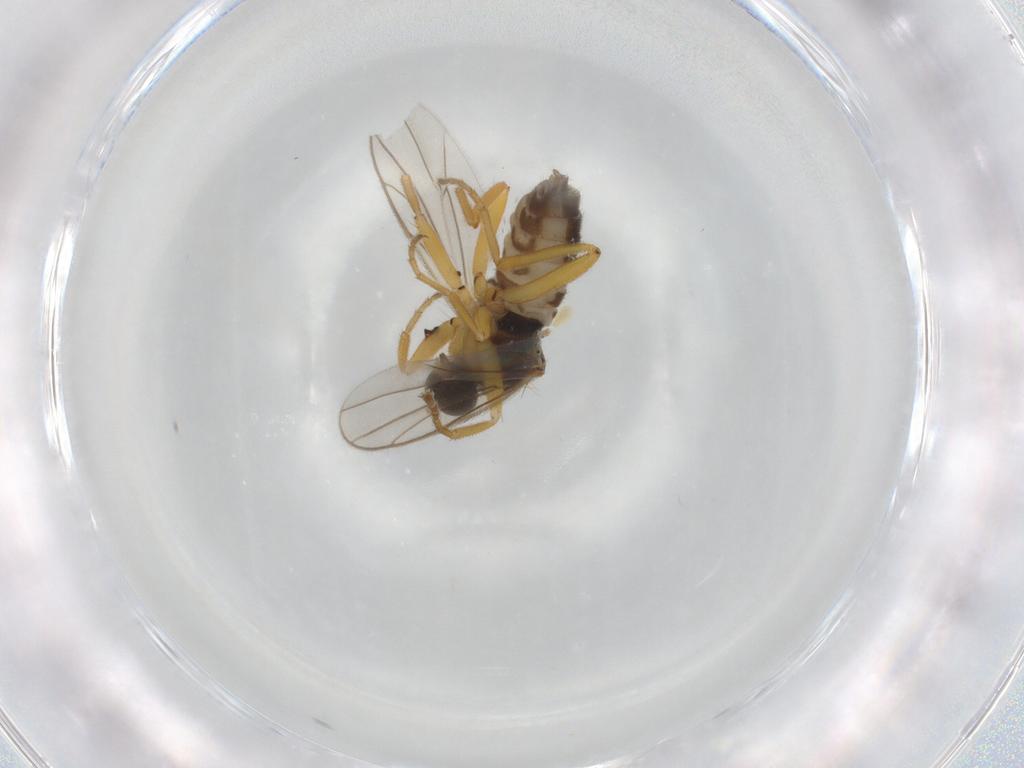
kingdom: Animalia
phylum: Arthropoda
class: Insecta
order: Diptera
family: Hybotidae
